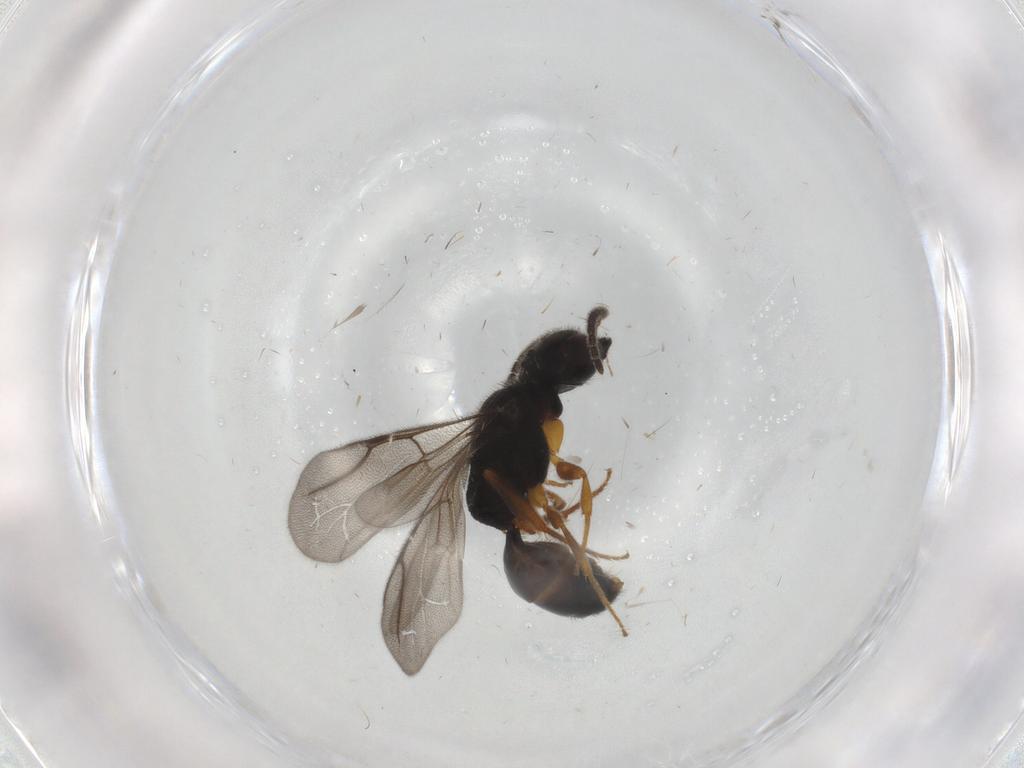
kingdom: Animalia
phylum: Arthropoda
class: Insecta
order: Hymenoptera
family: Bethylidae
